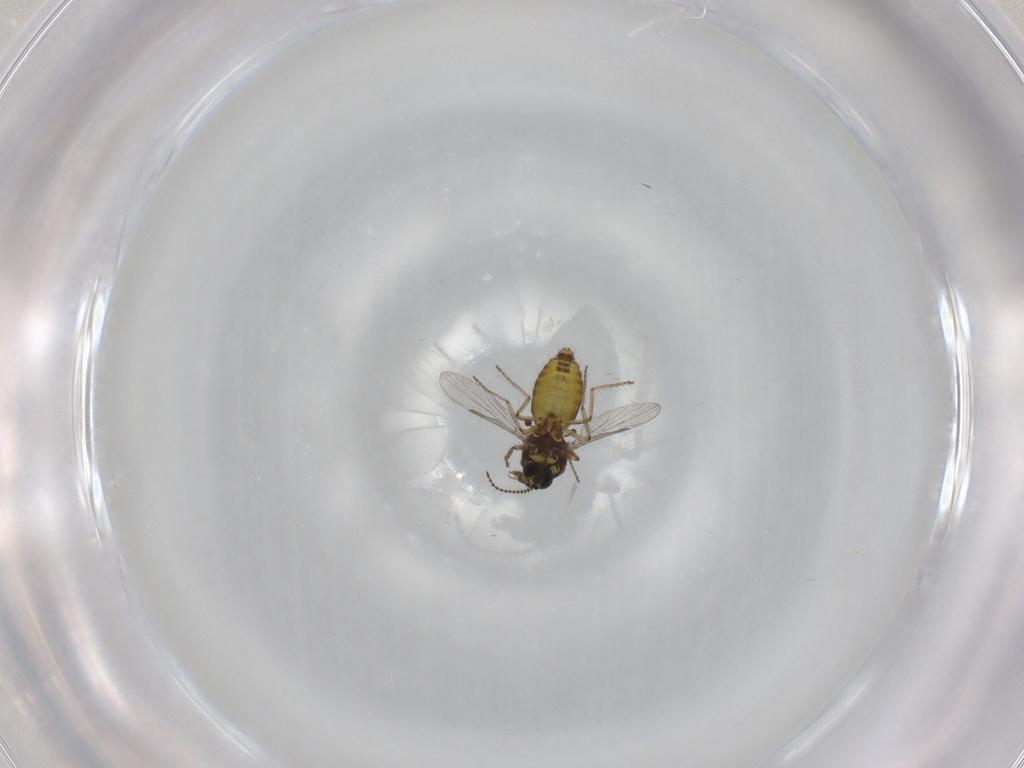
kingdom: Animalia
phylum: Arthropoda
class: Insecta
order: Diptera
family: Ceratopogonidae
